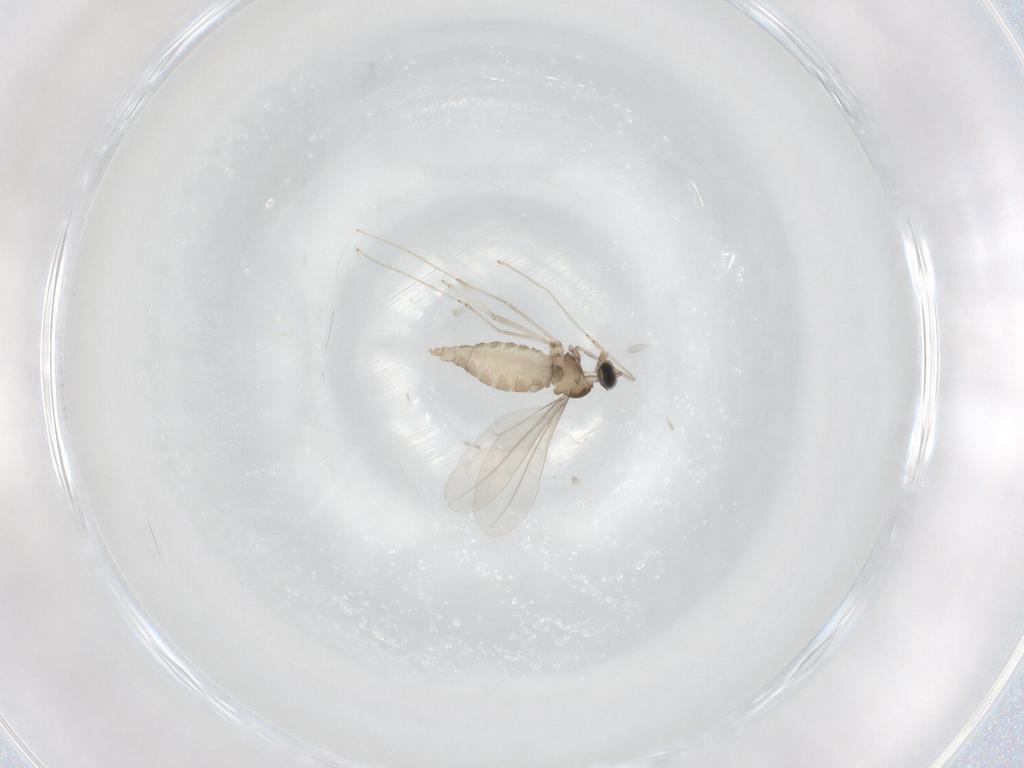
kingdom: Animalia
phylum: Arthropoda
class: Insecta
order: Diptera
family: Cecidomyiidae
